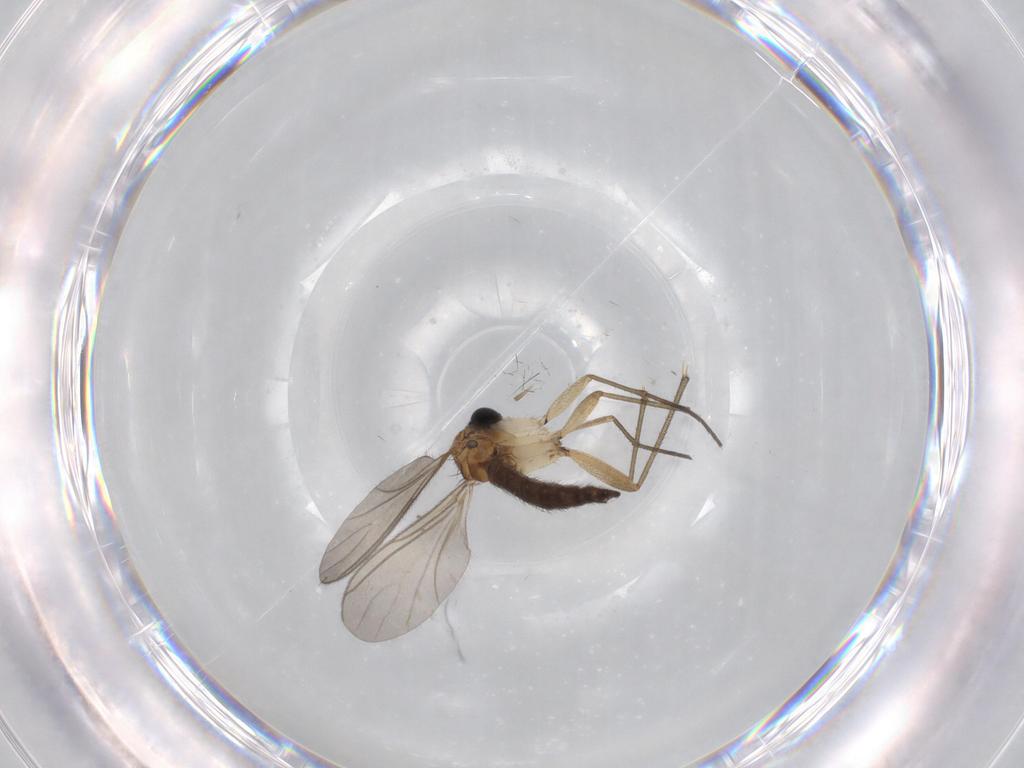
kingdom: Animalia
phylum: Arthropoda
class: Insecta
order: Diptera
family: Limoniidae
